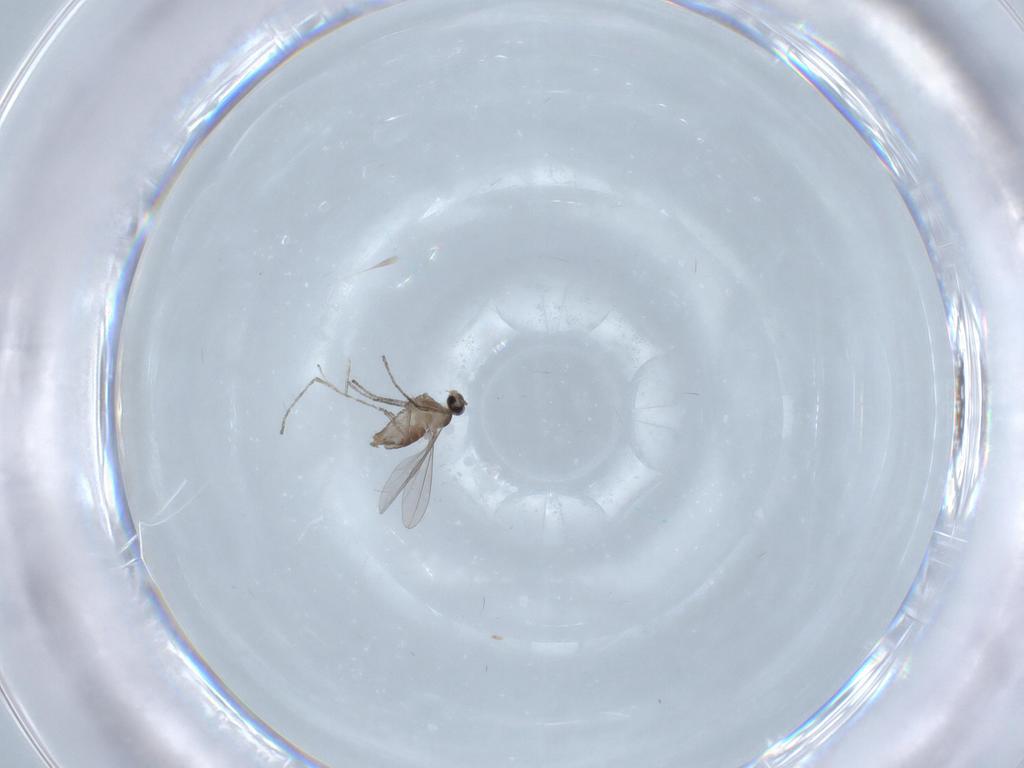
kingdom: Animalia
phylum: Arthropoda
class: Insecta
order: Diptera
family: Cecidomyiidae
